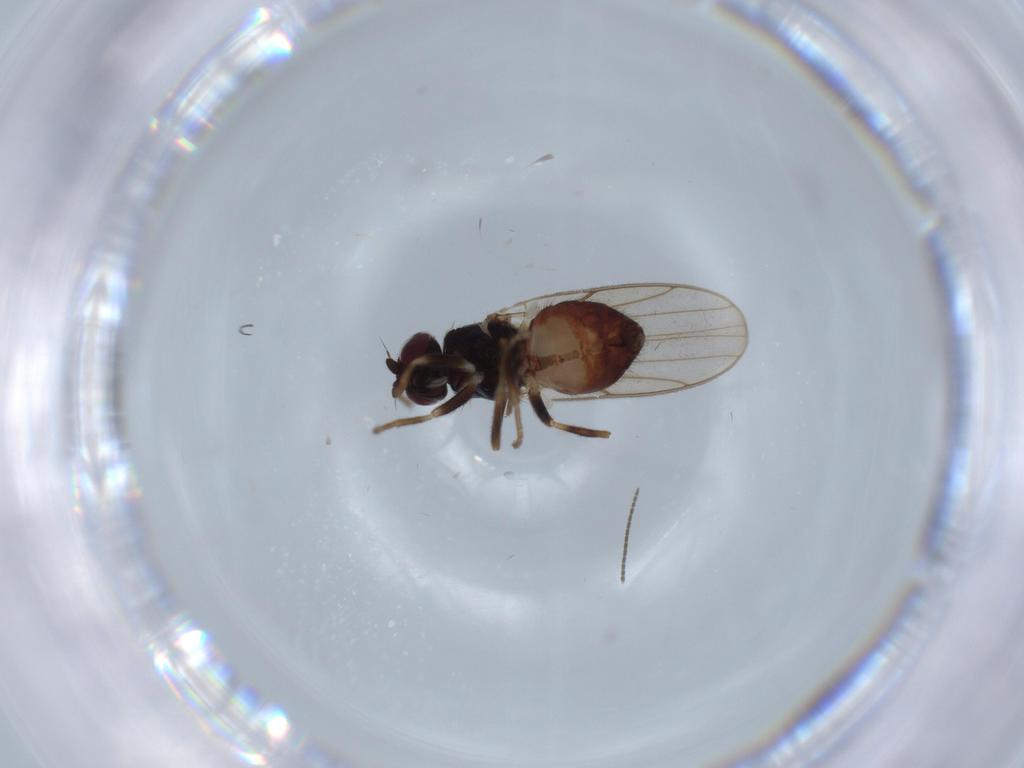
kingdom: Animalia
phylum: Arthropoda
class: Insecta
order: Diptera
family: Chloropidae
